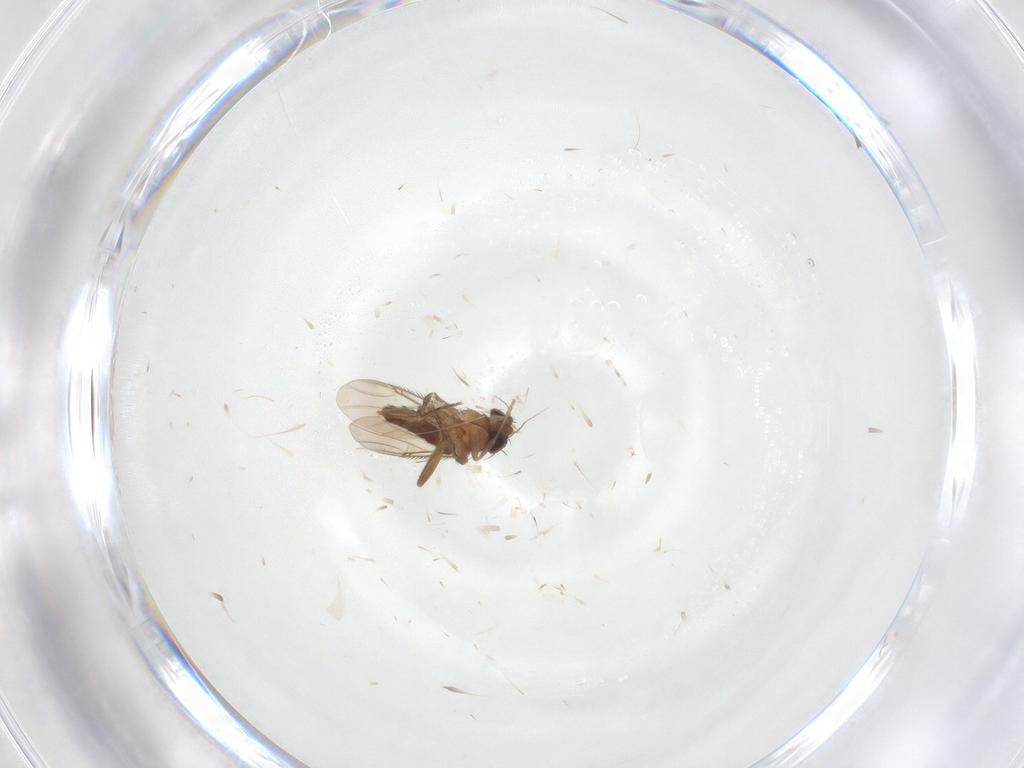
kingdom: Animalia
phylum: Arthropoda
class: Insecta
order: Diptera
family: Phoridae
